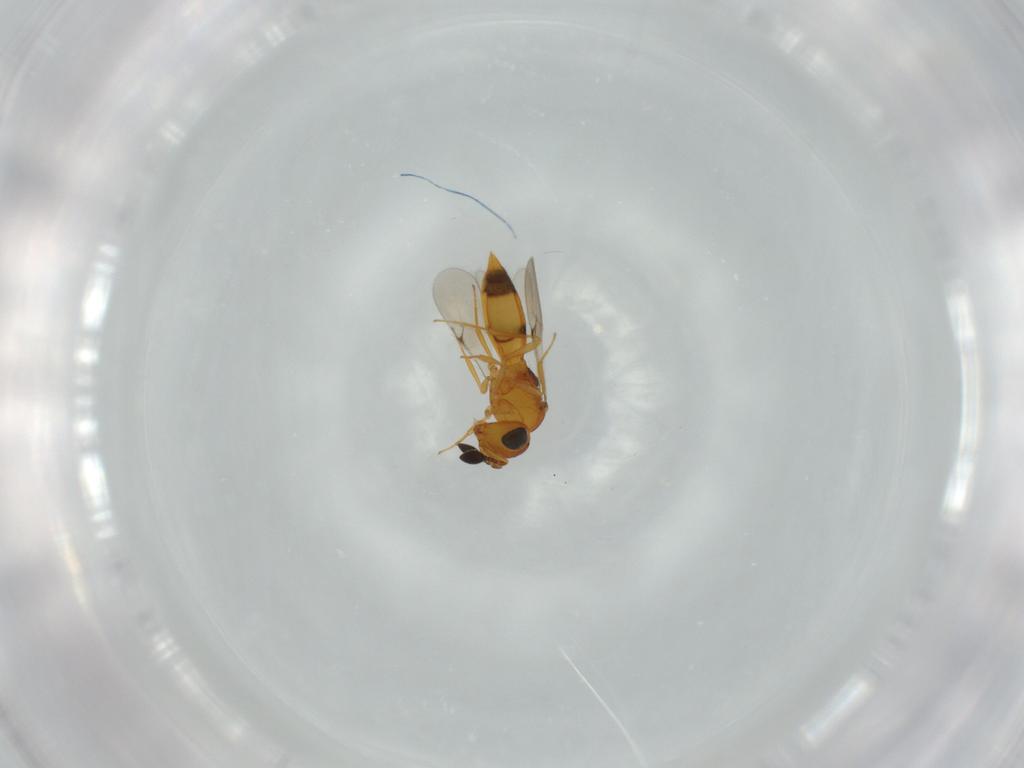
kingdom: Animalia
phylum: Arthropoda
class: Insecta
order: Hymenoptera
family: Scelionidae
